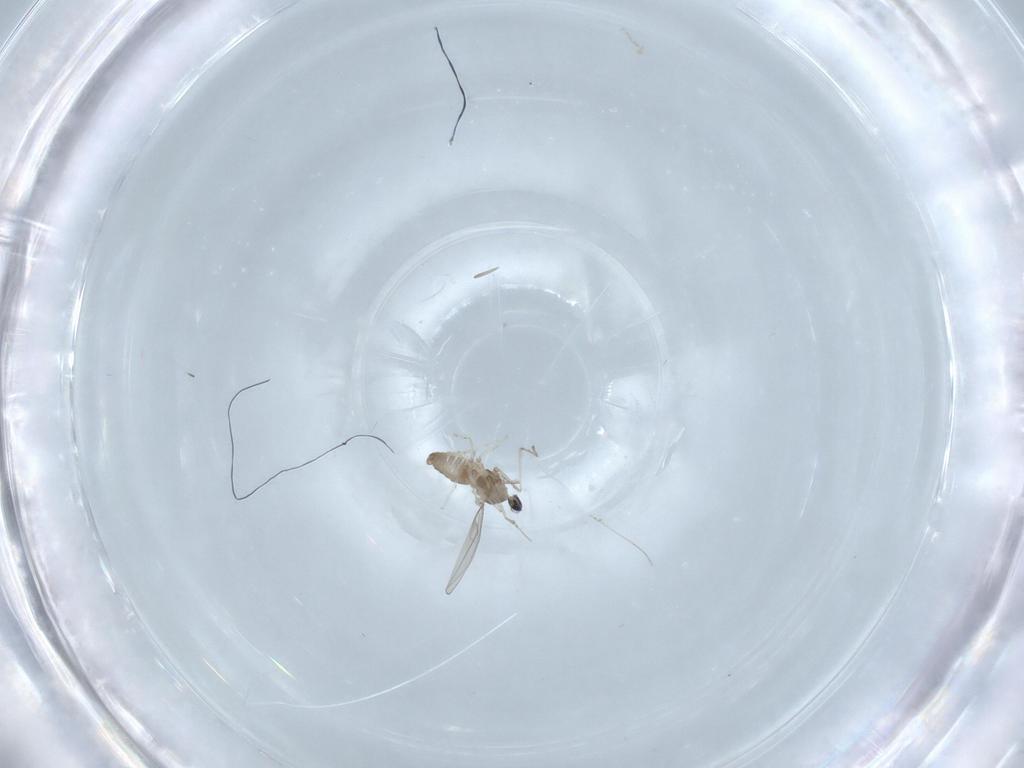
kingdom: Animalia
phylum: Arthropoda
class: Insecta
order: Diptera
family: Cecidomyiidae
